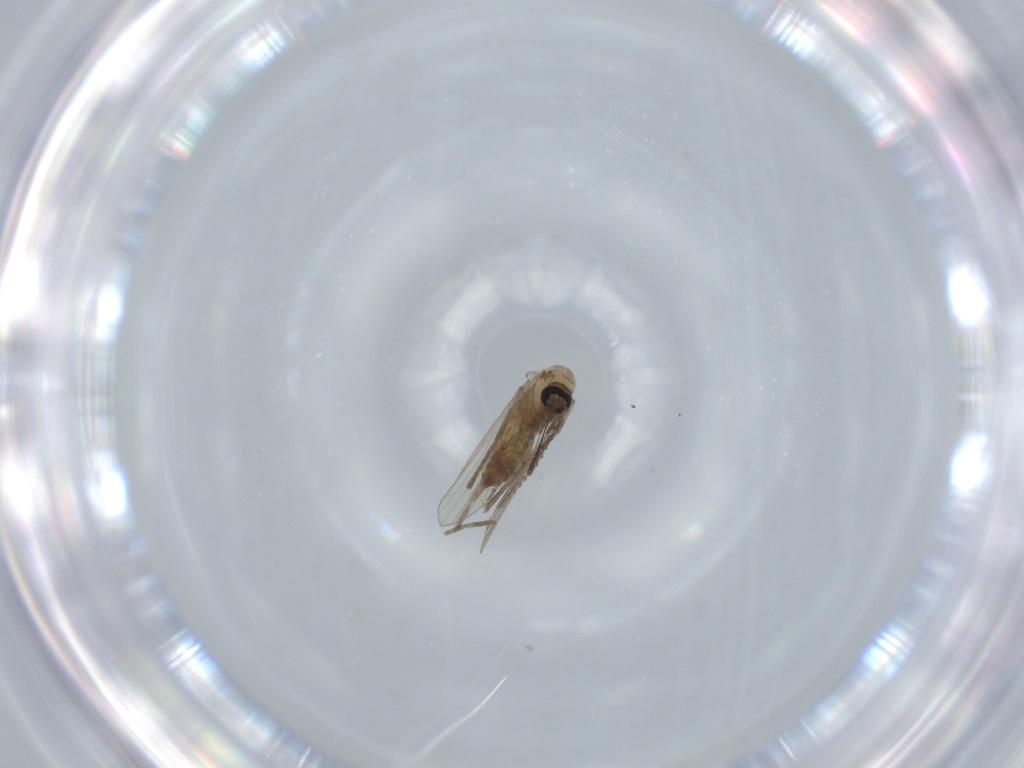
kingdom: Animalia
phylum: Arthropoda
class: Insecta
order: Diptera
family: Psychodidae
